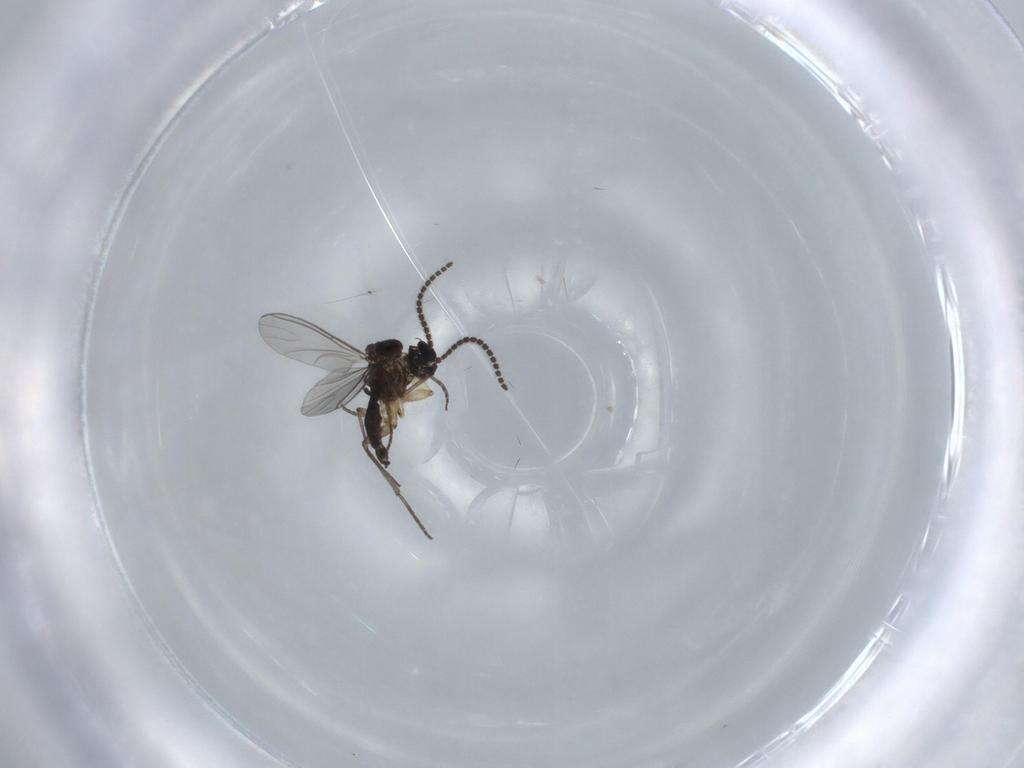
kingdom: Animalia
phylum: Arthropoda
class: Insecta
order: Diptera
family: Sciaridae
